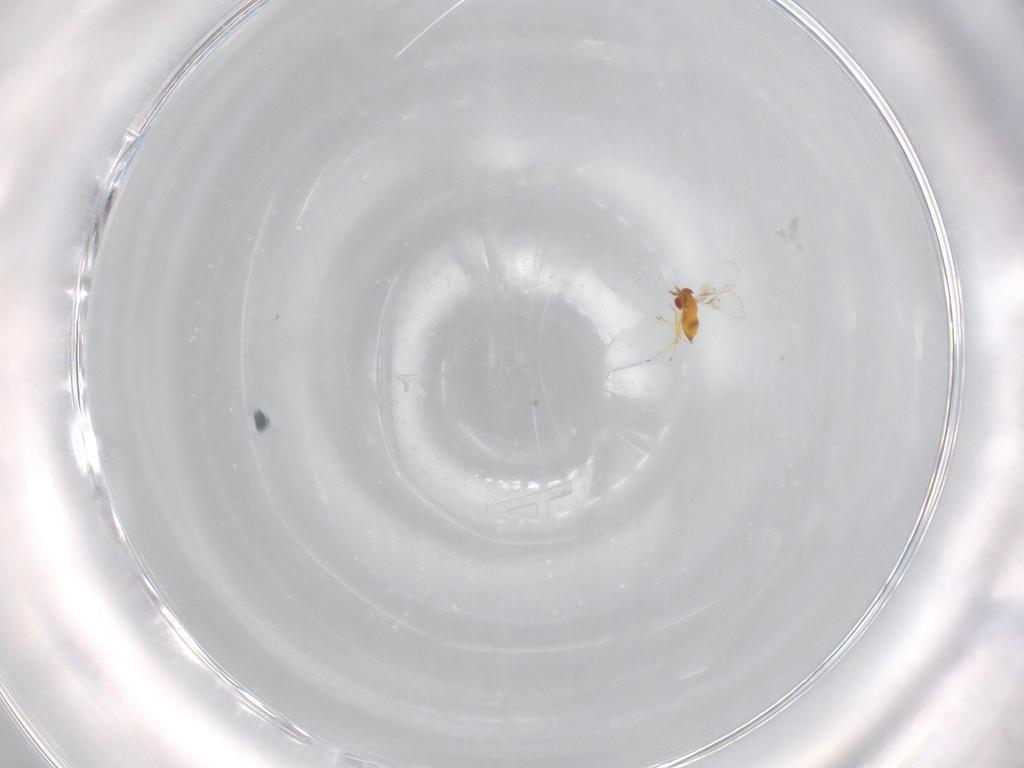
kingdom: Animalia
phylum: Arthropoda
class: Insecta
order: Hymenoptera
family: Trichogrammatidae
